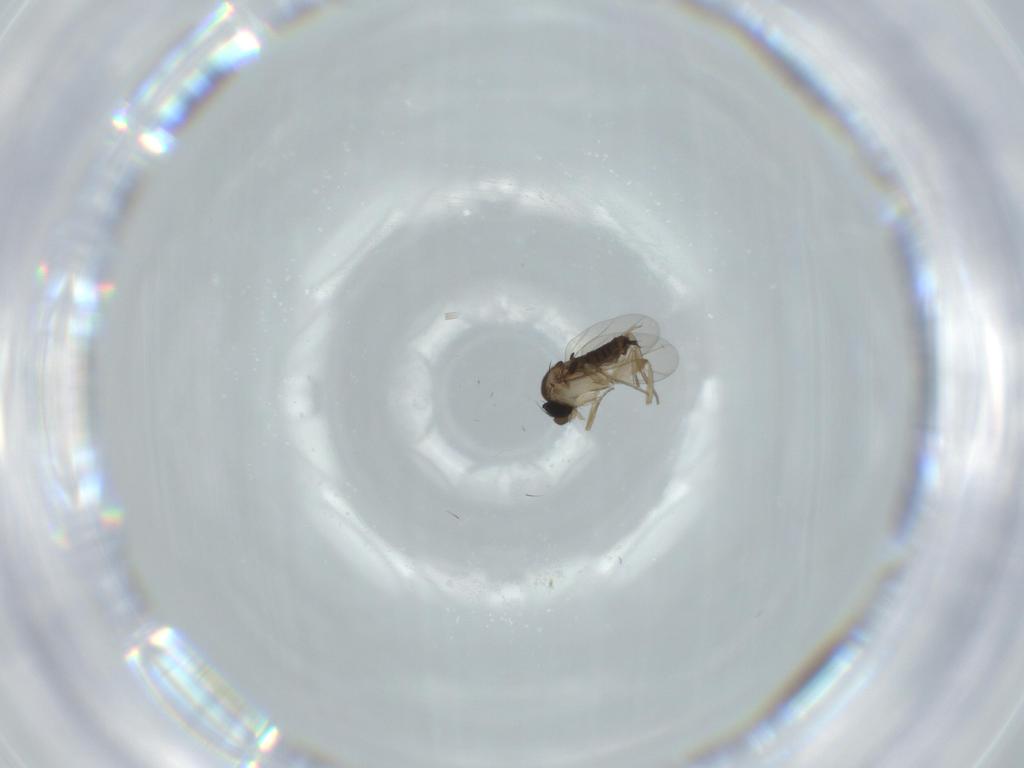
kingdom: Animalia
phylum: Arthropoda
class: Insecta
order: Diptera
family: Phoridae
